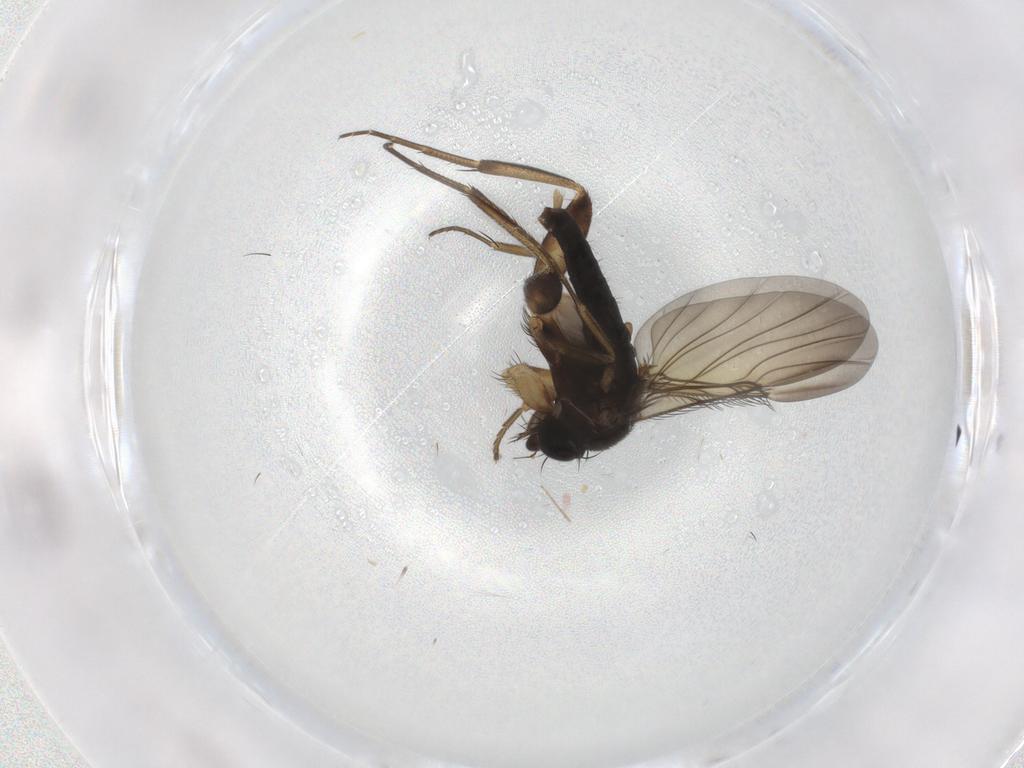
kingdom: Animalia
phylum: Arthropoda
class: Insecta
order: Diptera
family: Phoridae
